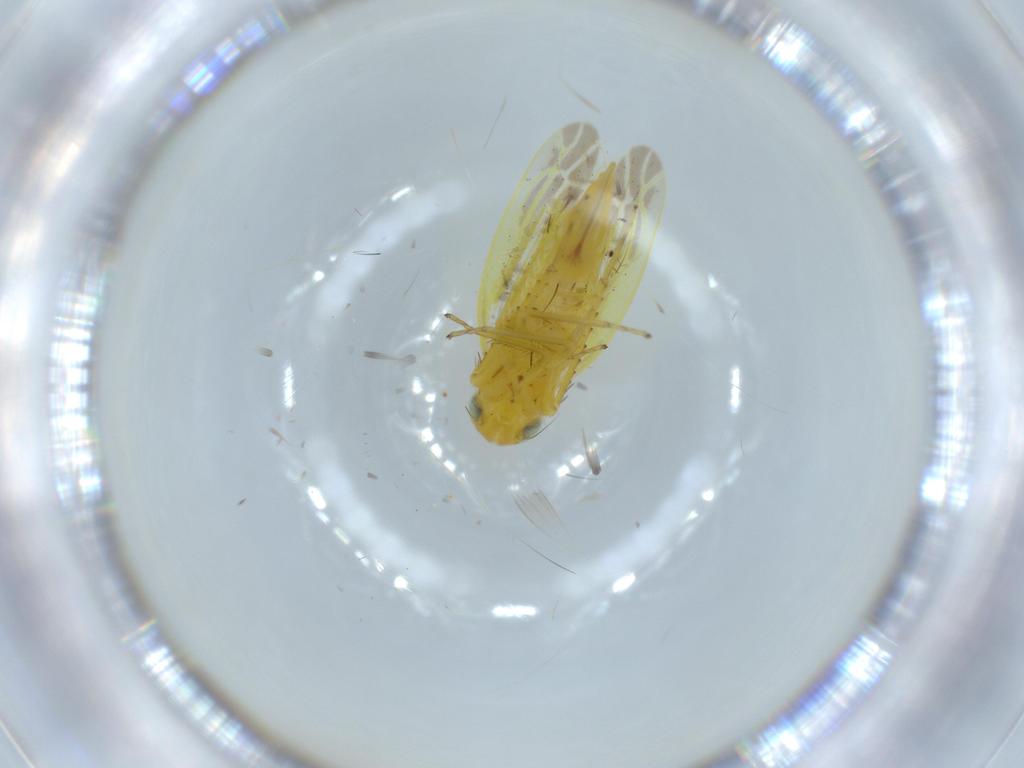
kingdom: Animalia
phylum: Arthropoda
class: Insecta
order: Hemiptera
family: Cicadellidae
